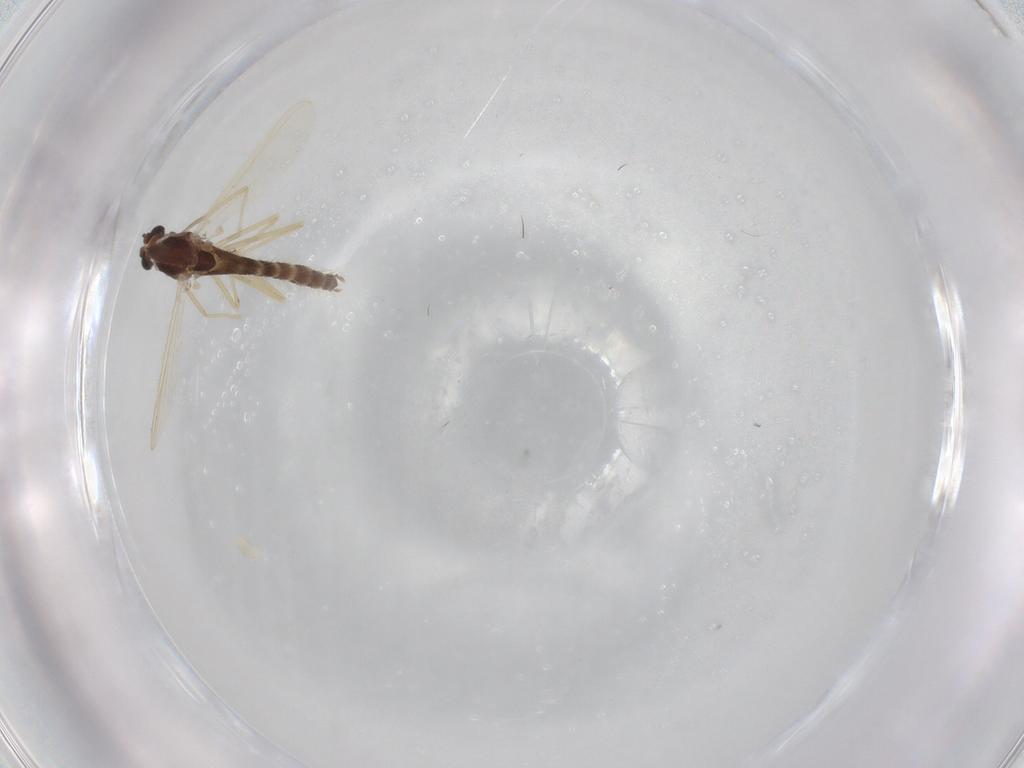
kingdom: Animalia
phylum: Arthropoda
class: Insecta
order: Diptera
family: Chironomidae
